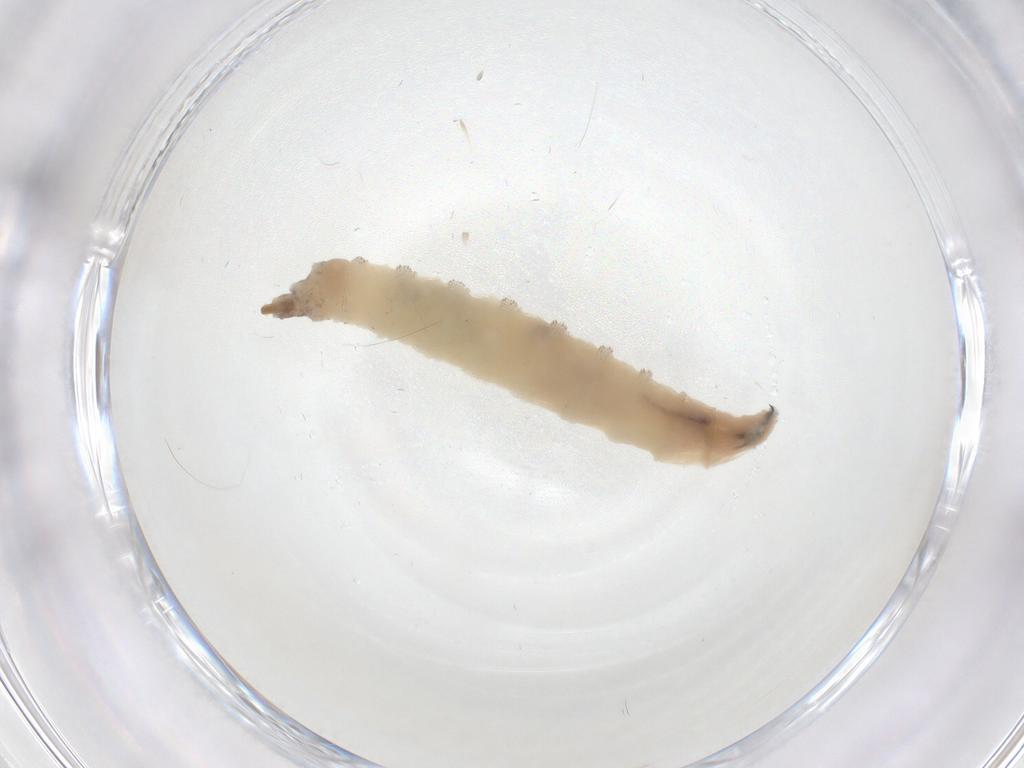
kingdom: Animalia
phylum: Arthropoda
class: Insecta
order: Diptera
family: Drosophilidae
